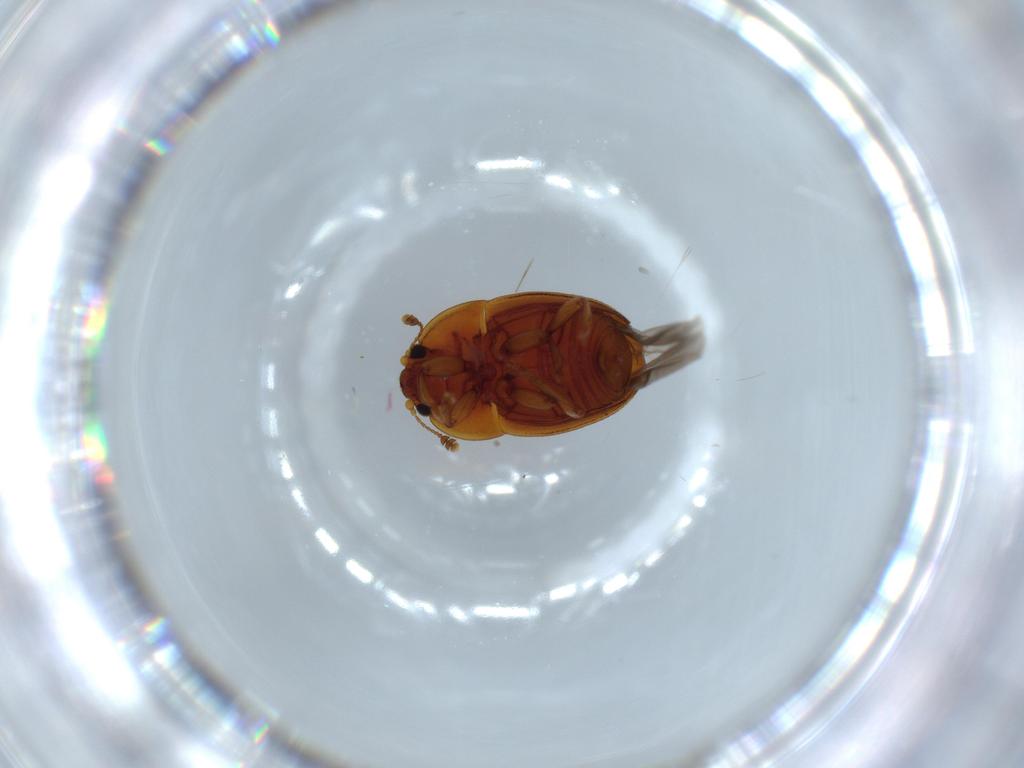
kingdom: Animalia
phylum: Arthropoda
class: Insecta
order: Coleoptera
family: Nitidulidae
